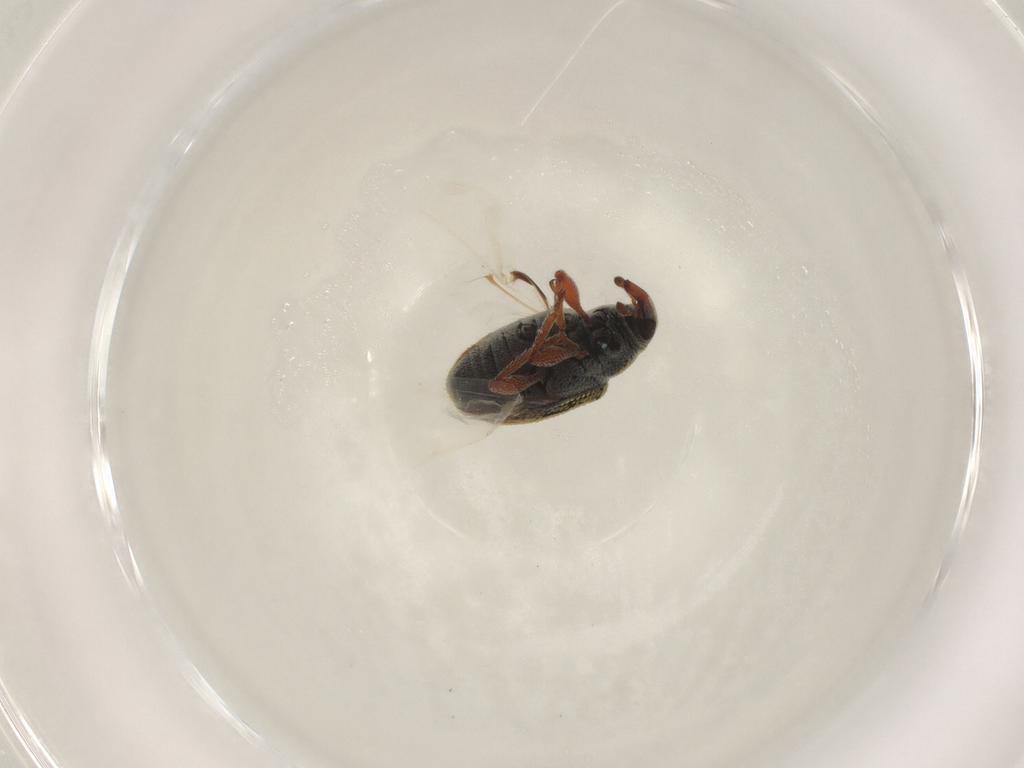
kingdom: Animalia
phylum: Arthropoda
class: Insecta
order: Coleoptera
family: Curculionidae
